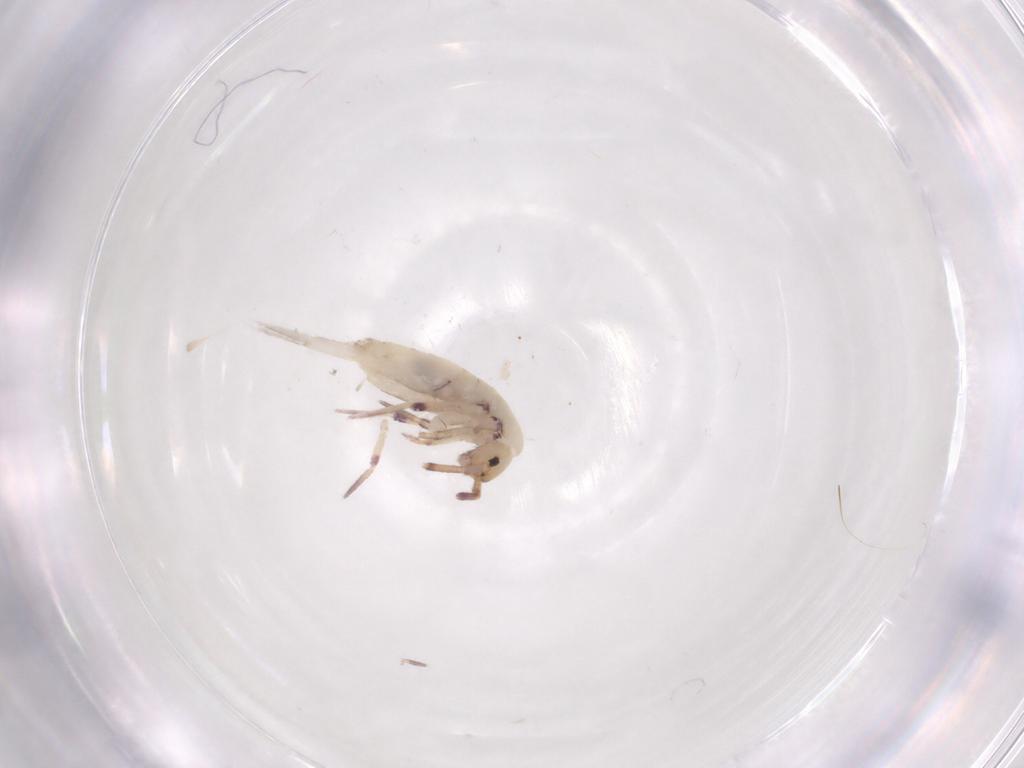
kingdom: Animalia
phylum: Arthropoda
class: Collembola
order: Entomobryomorpha
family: Entomobryidae
